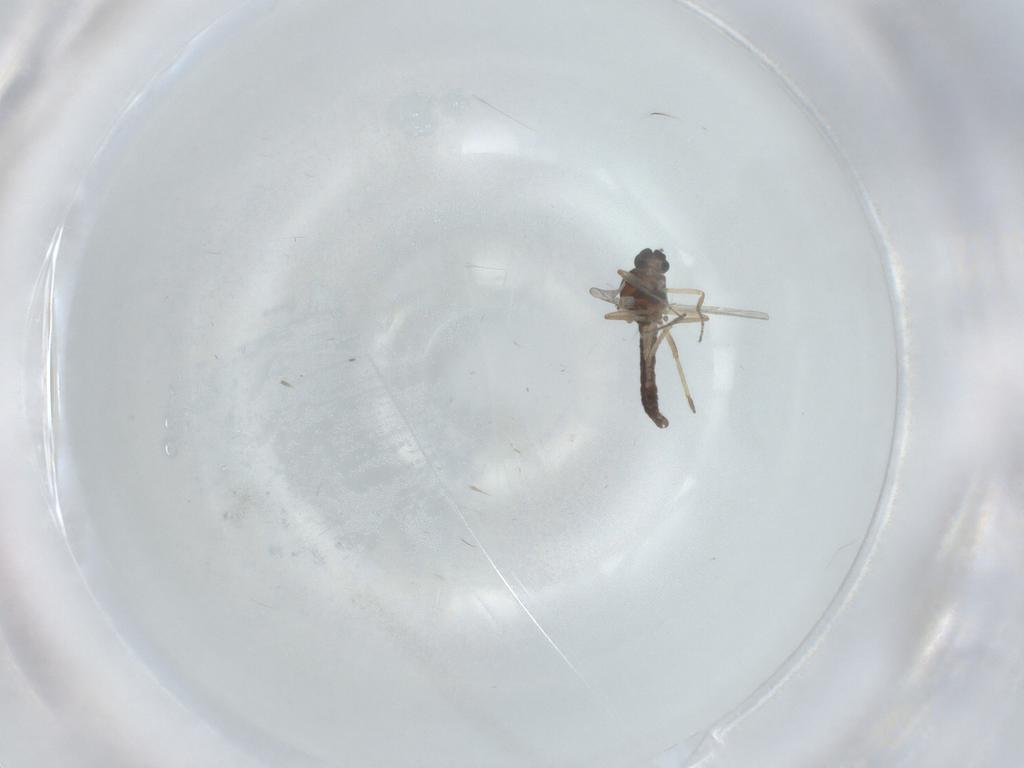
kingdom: Animalia
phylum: Arthropoda
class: Insecta
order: Diptera
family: Ceratopogonidae
